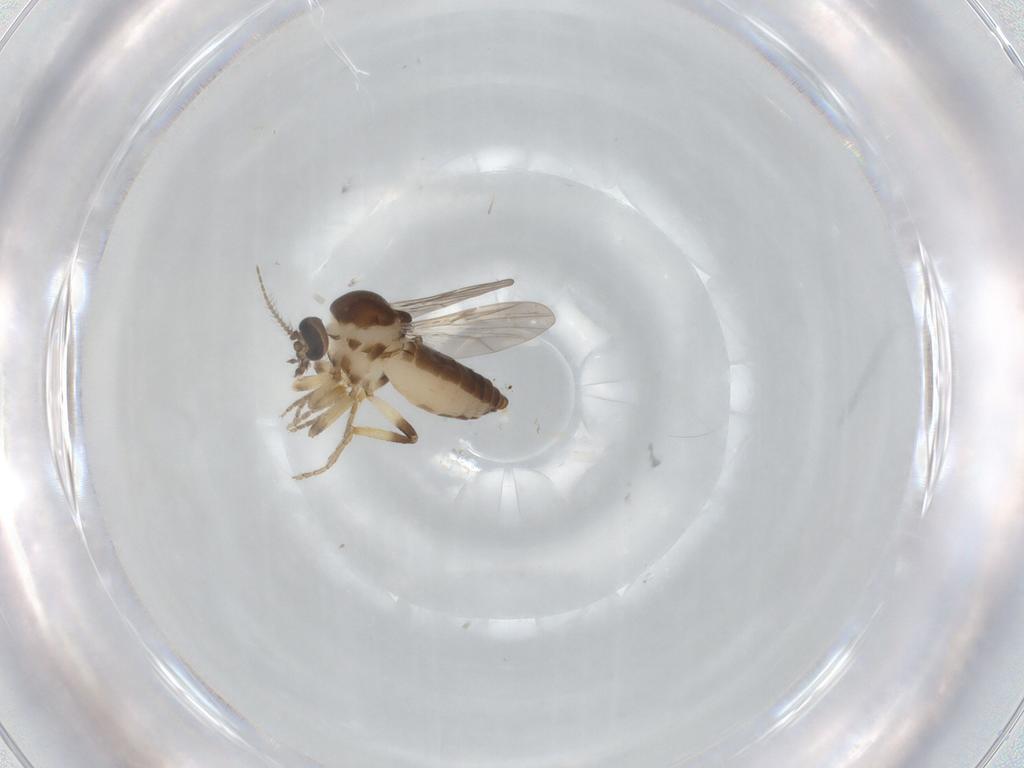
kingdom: Animalia
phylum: Arthropoda
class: Insecta
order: Diptera
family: Ceratopogonidae
